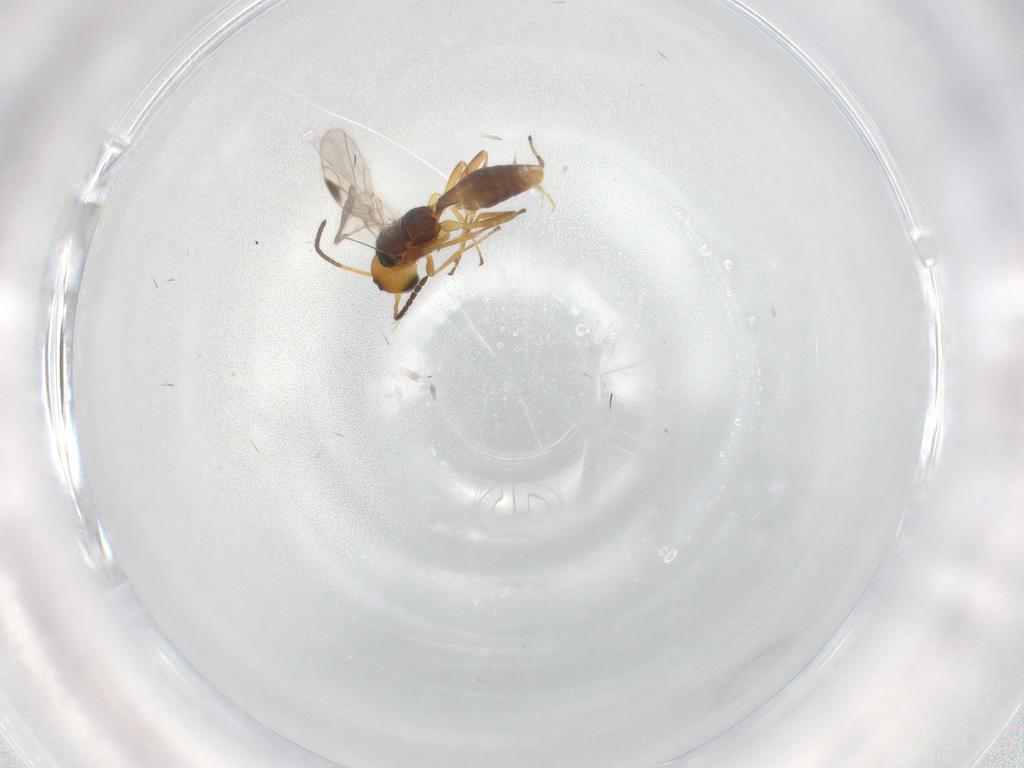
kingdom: Animalia
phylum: Arthropoda
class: Insecta
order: Hymenoptera
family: Braconidae
